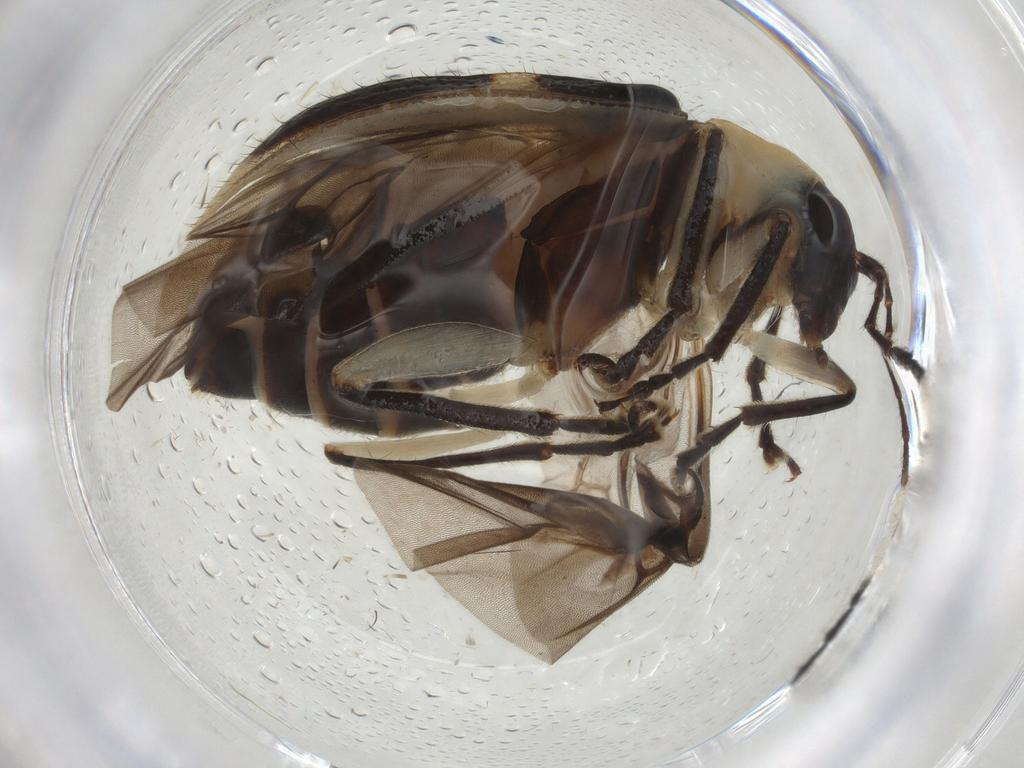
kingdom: Animalia
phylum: Arthropoda
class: Insecta
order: Coleoptera
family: Chrysomelidae
